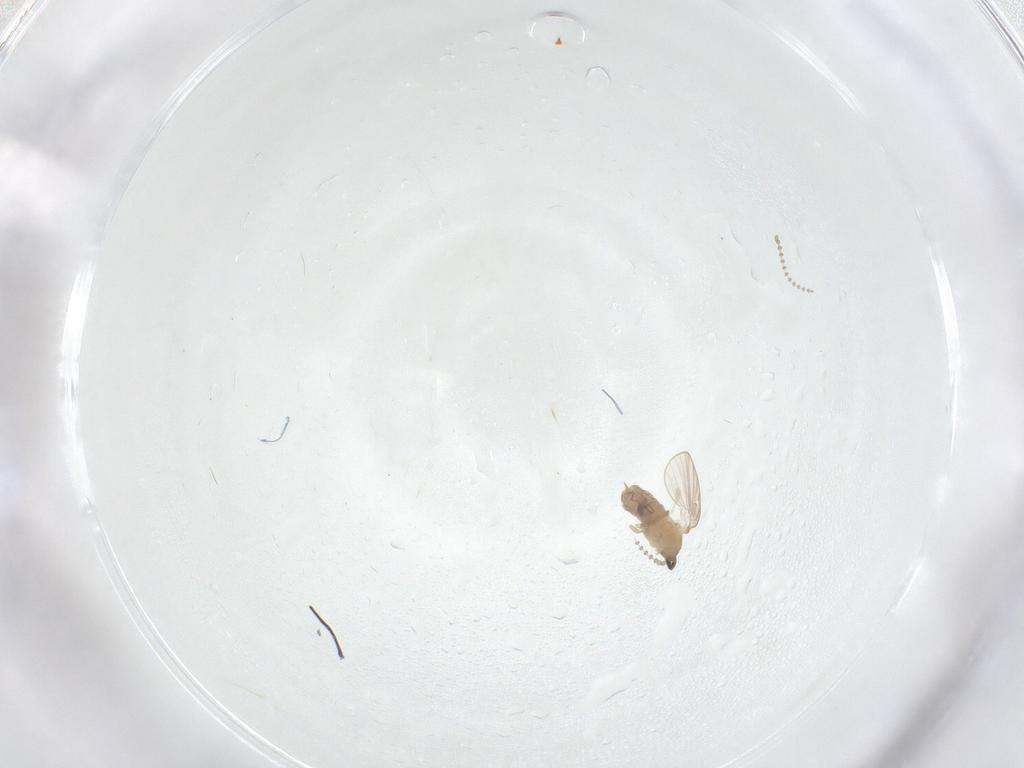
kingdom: Animalia
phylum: Arthropoda
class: Insecta
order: Diptera
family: Psychodidae
